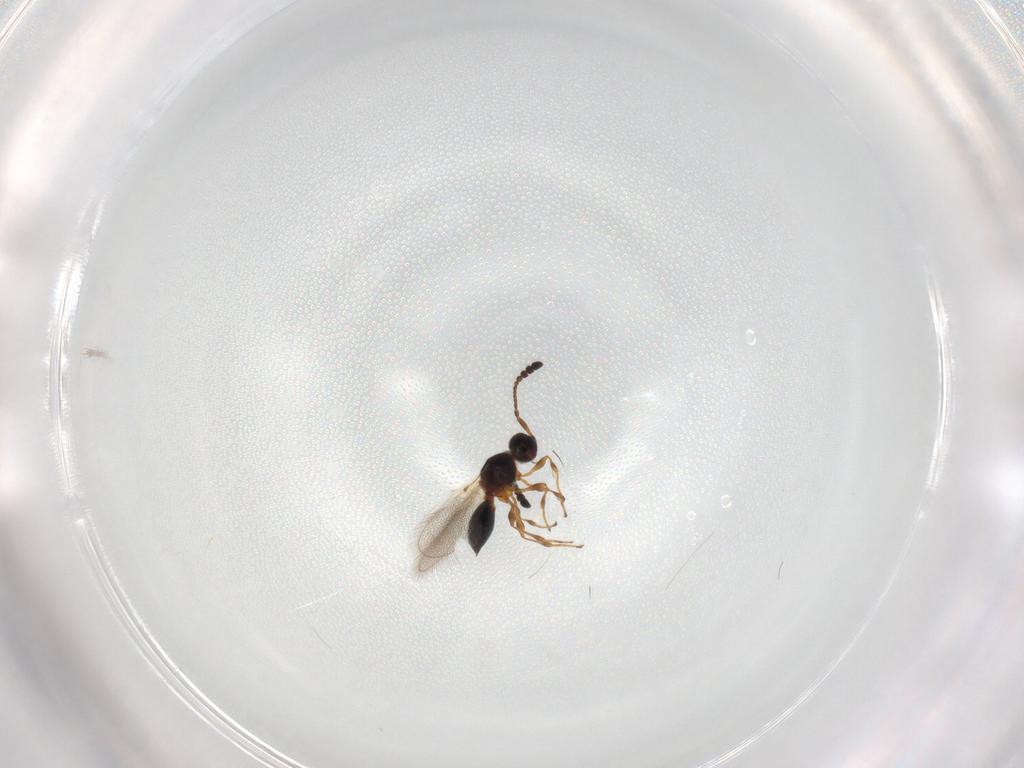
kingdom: Animalia
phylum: Arthropoda
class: Insecta
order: Hymenoptera
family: Diapriidae
